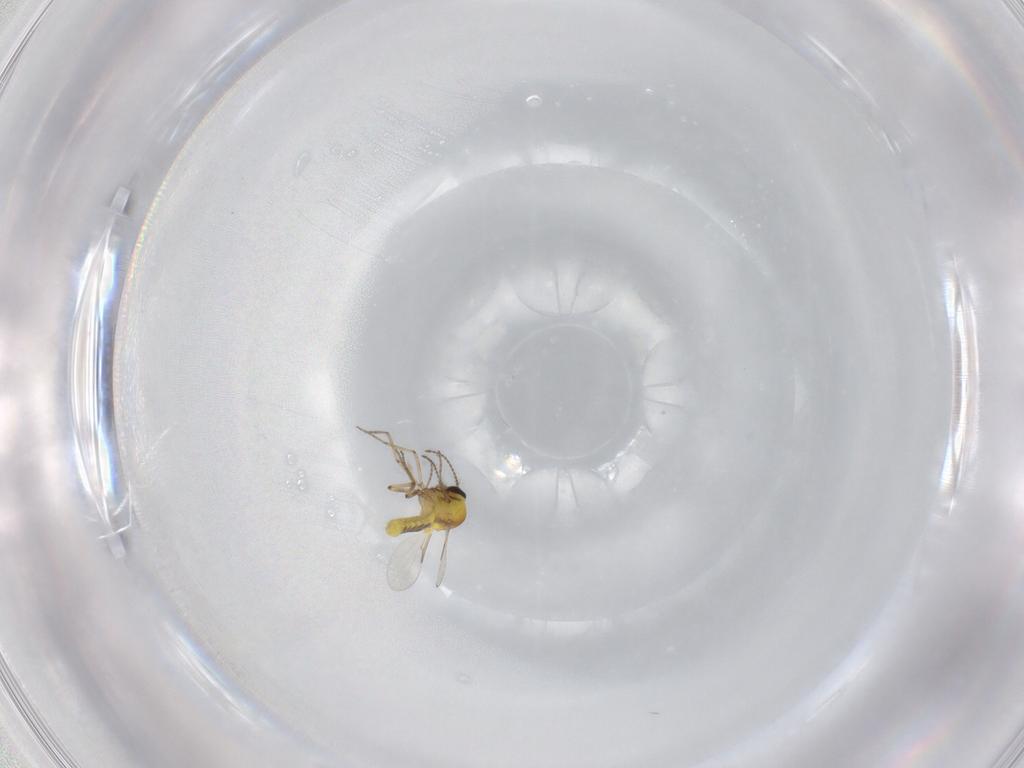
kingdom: Animalia
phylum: Arthropoda
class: Insecta
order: Diptera
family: Ceratopogonidae
